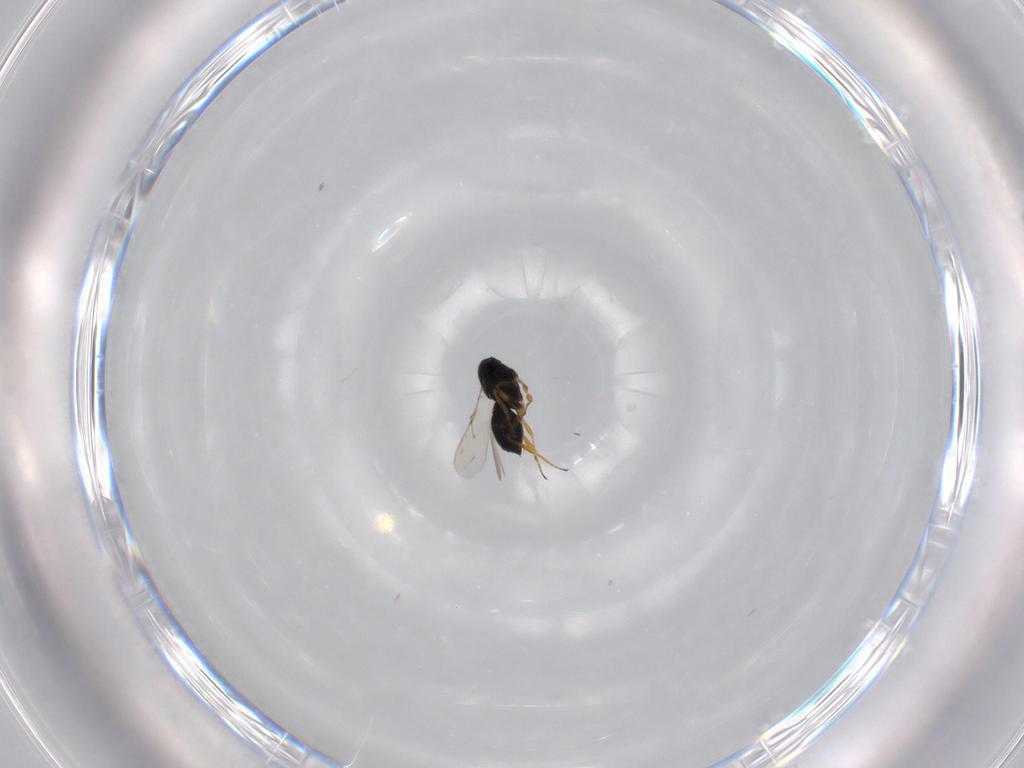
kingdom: Animalia
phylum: Arthropoda
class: Insecta
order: Hymenoptera
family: Scelionidae
